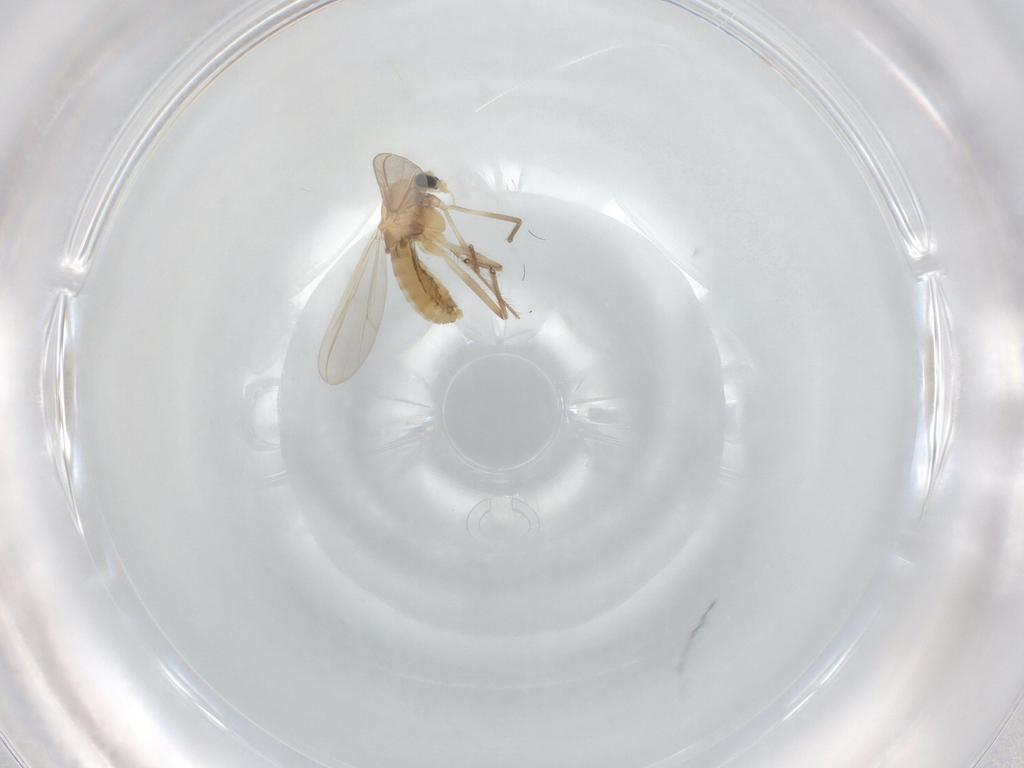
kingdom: Animalia
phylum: Arthropoda
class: Insecta
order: Diptera
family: Chironomidae
